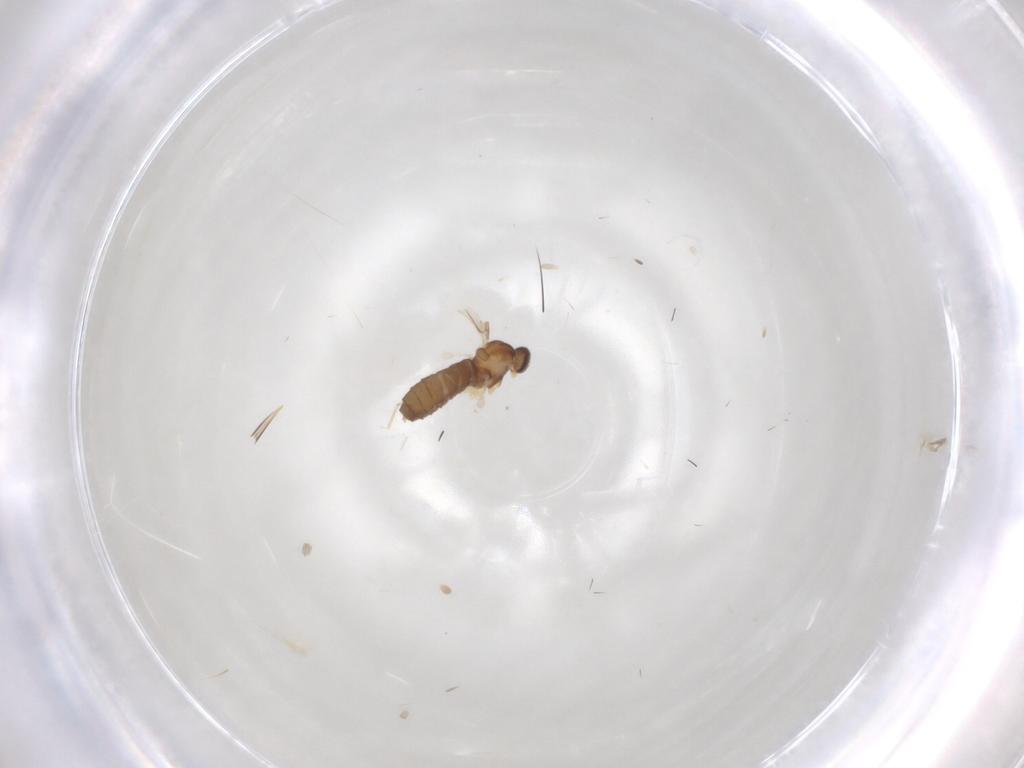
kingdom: Animalia
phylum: Arthropoda
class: Insecta
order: Diptera
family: Cecidomyiidae
